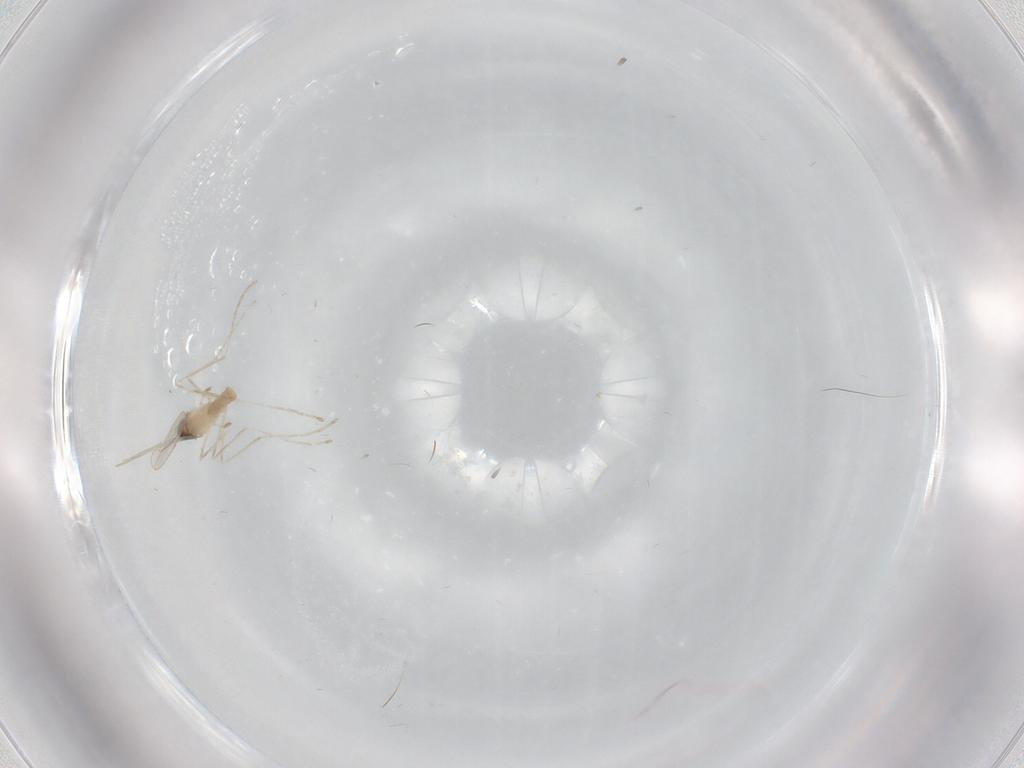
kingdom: Animalia
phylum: Arthropoda
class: Insecta
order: Diptera
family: Cecidomyiidae
